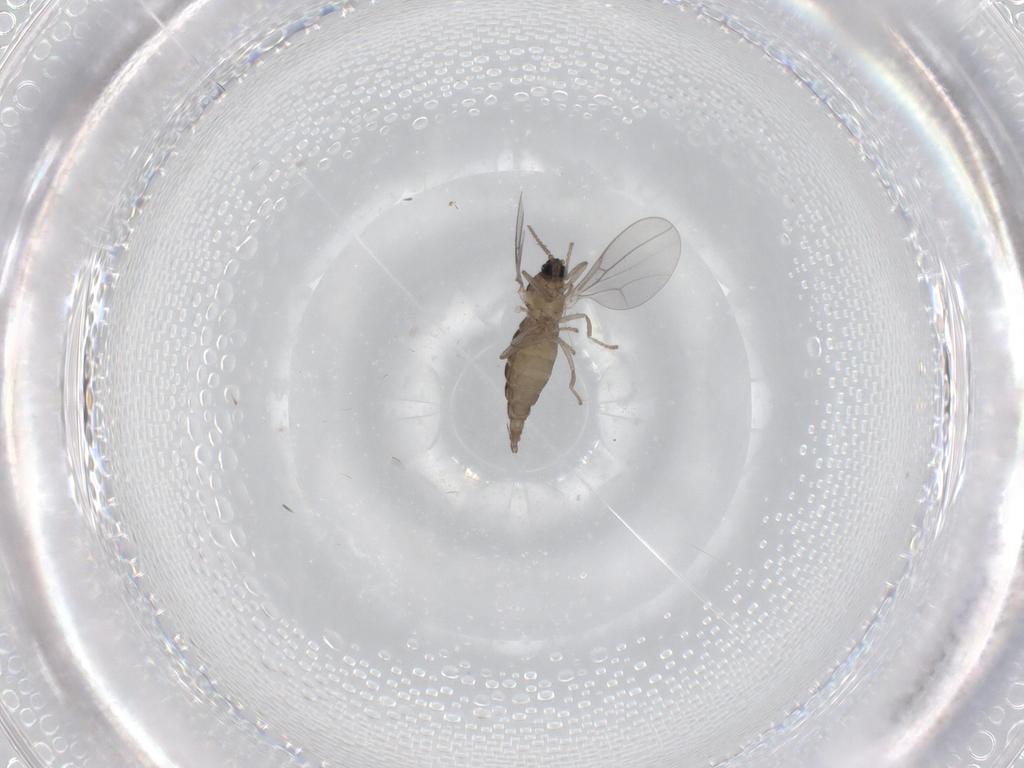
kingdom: Animalia
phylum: Arthropoda
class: Insecta
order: Diptera
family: Cecidomyiidae
